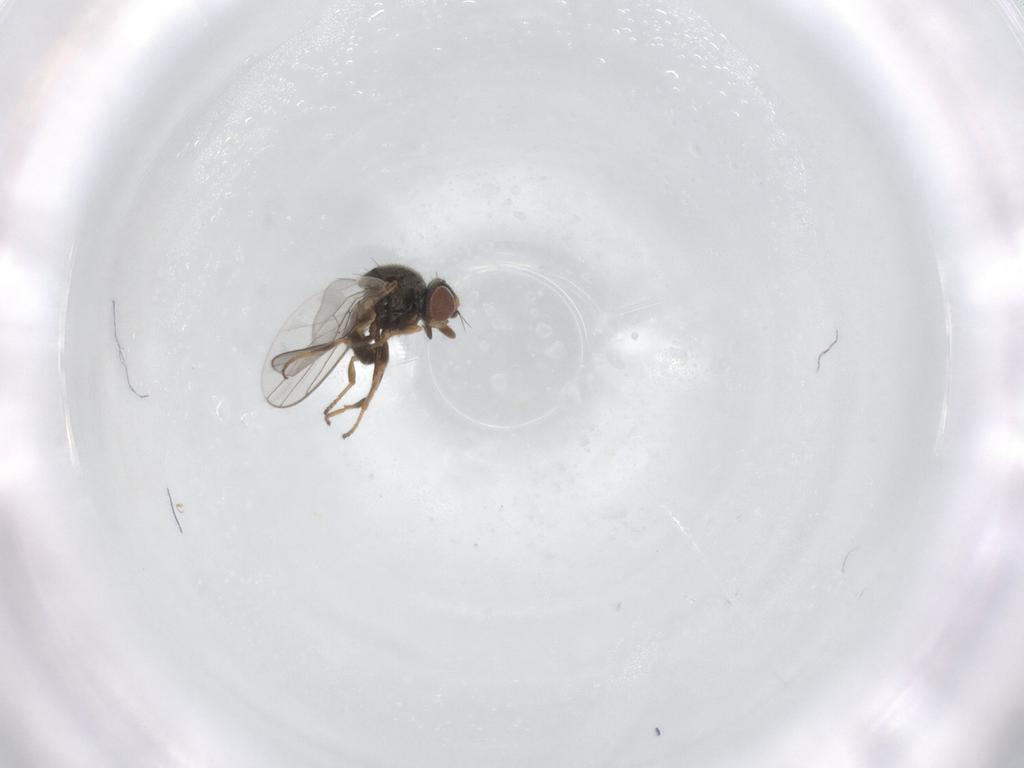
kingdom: Animalia
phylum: Arthropoda
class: Insecta
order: Diptera
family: Chloropidae
